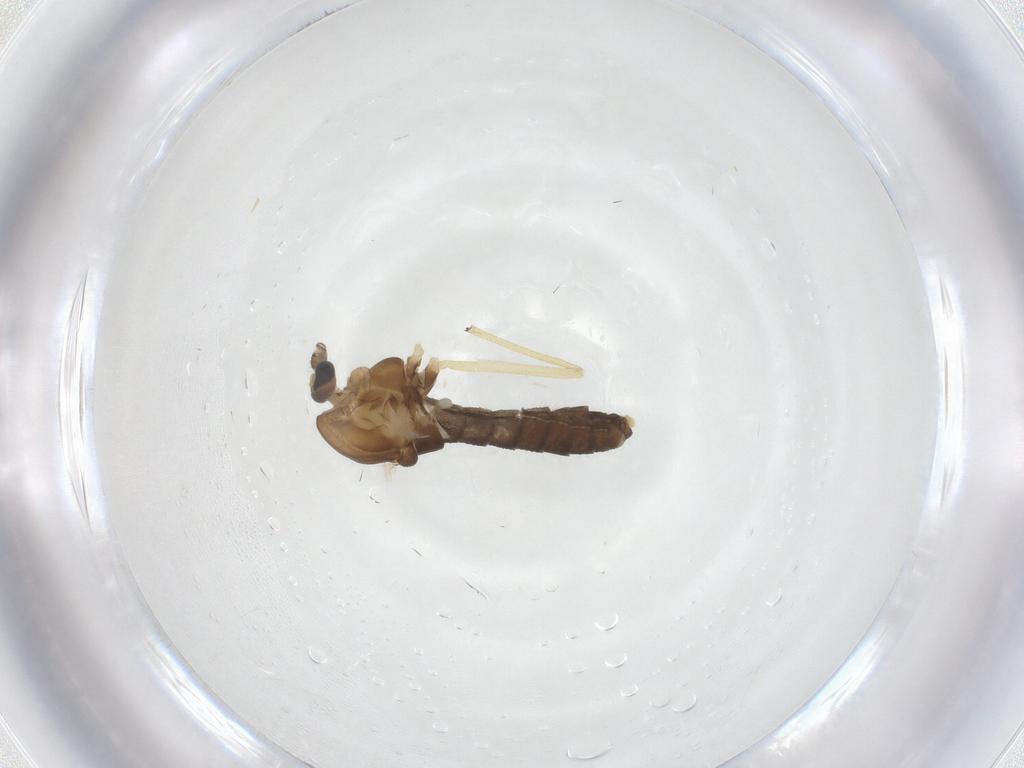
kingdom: Animalia
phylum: Arthropoda
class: Insecta
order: Diptera
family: Chironomidae
